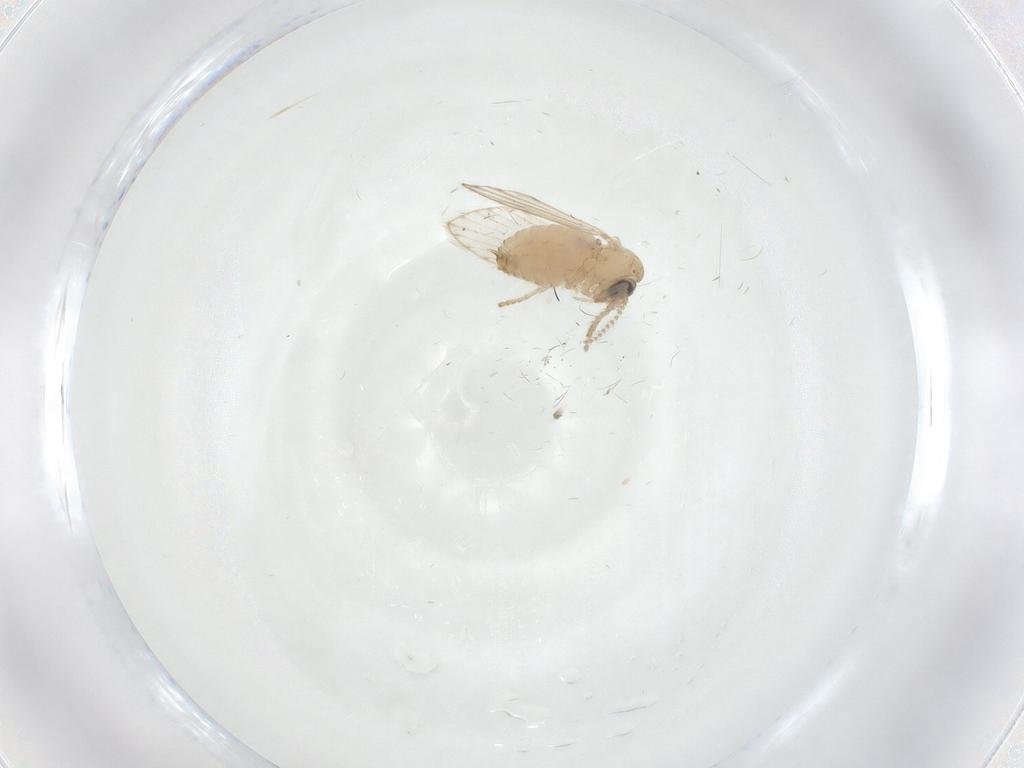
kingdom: Animalia
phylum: Arthropoda
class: Insecta
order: Diptera
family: Psychodidae
